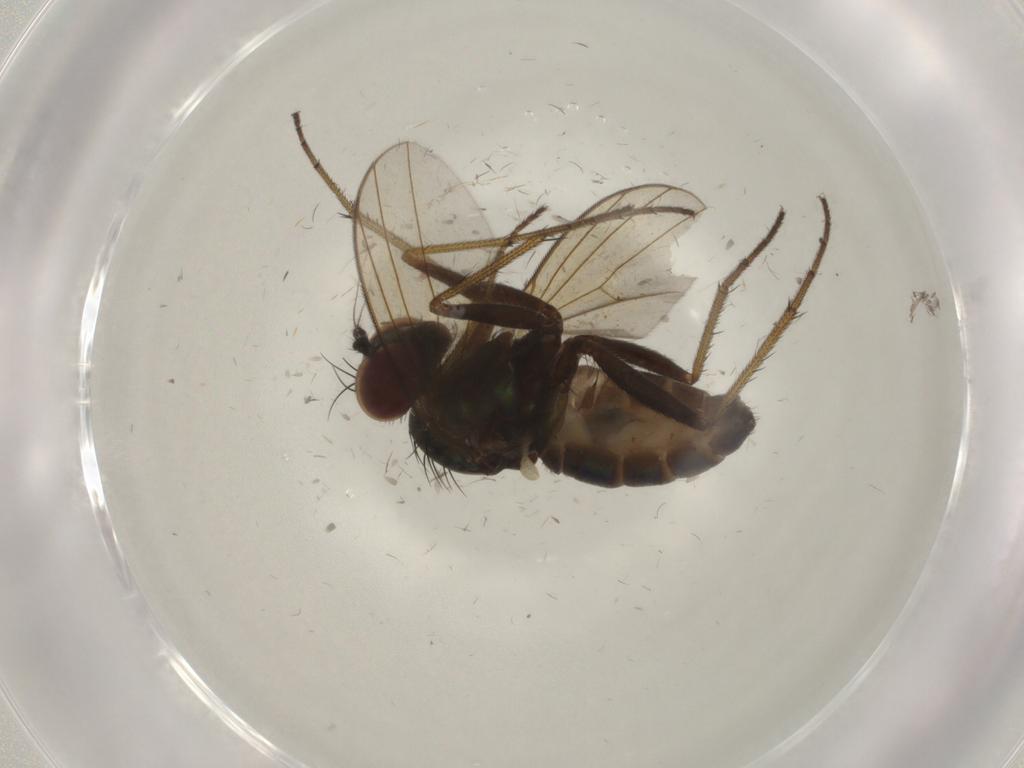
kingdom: Animalia
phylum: Arthropoda
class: Insecta
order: Diptera
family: Dolichopodidae
